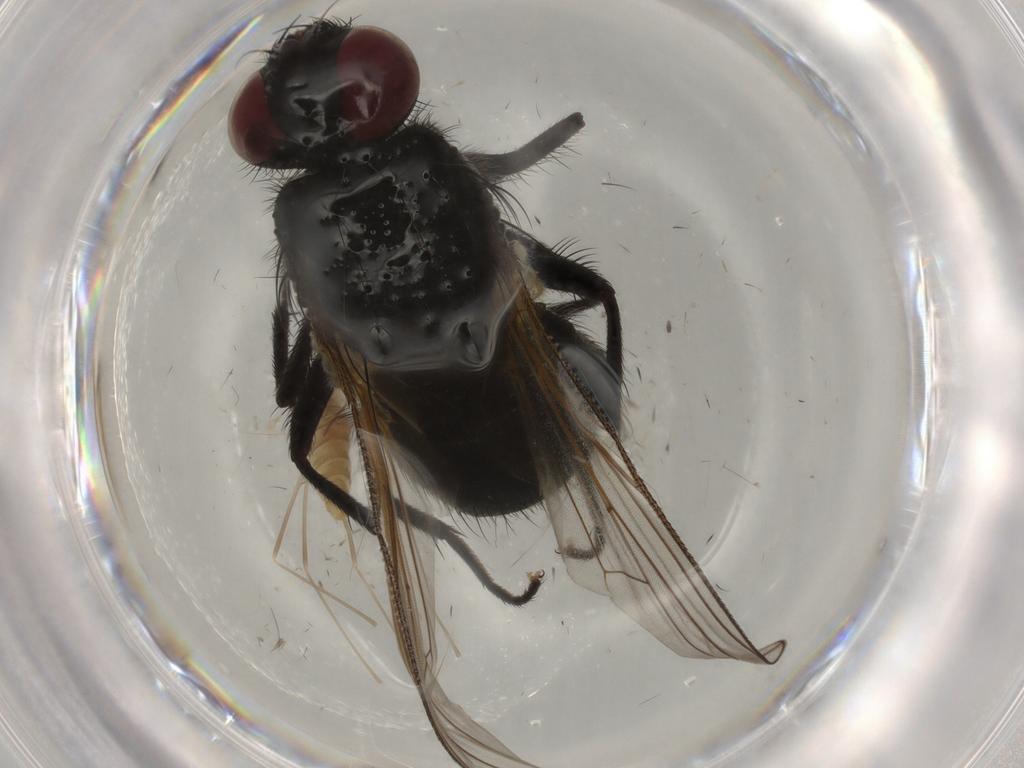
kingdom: Animalia
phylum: Arthropoda
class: Insecta
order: Diptera
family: Muscidae
